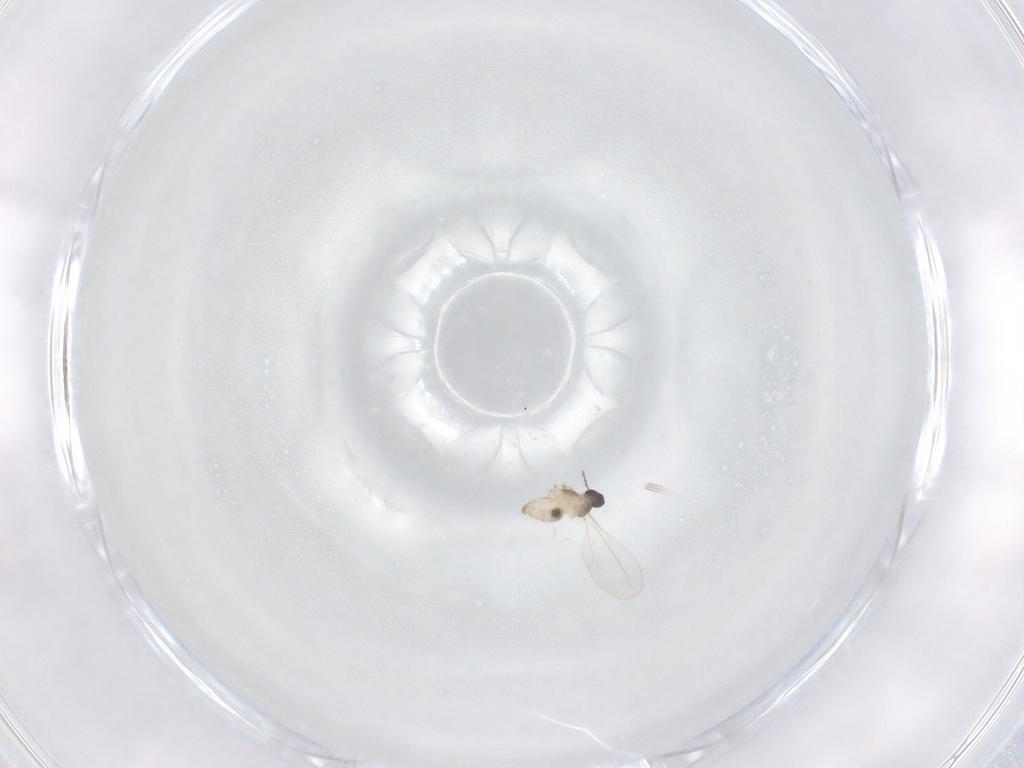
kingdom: Animalia
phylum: Arthropoda
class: Insecta
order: Diptera
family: Cecidomyiidae
